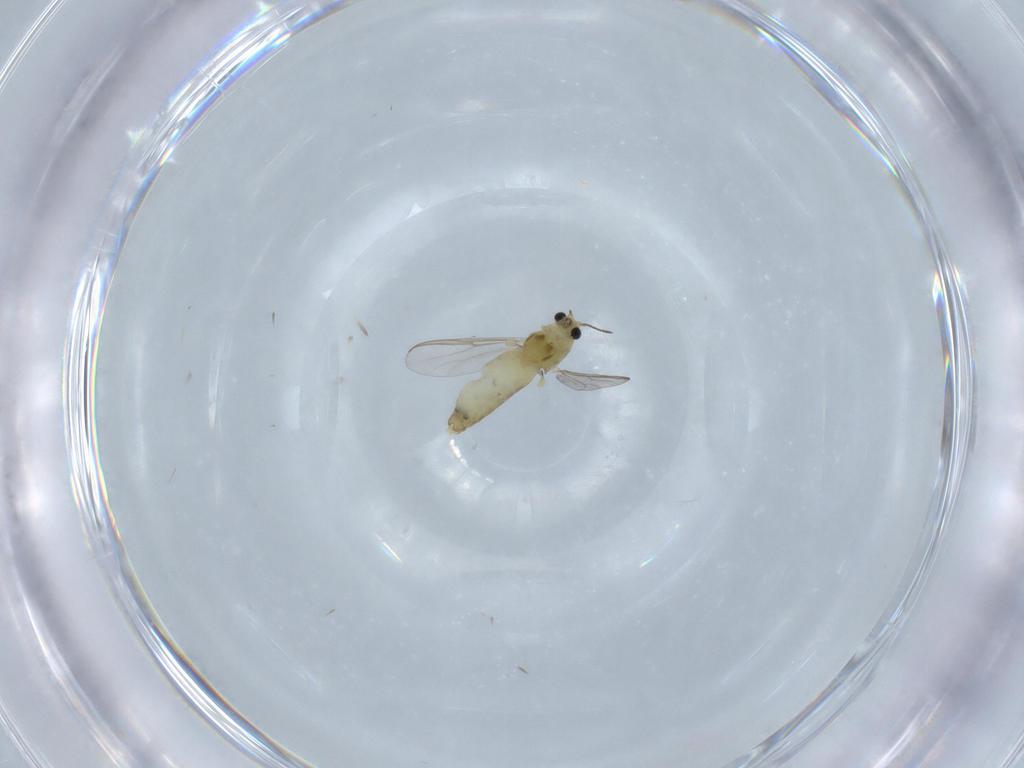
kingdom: Animalia
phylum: Arthropoda
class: Insecta
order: Diptera
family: Chironomidae
